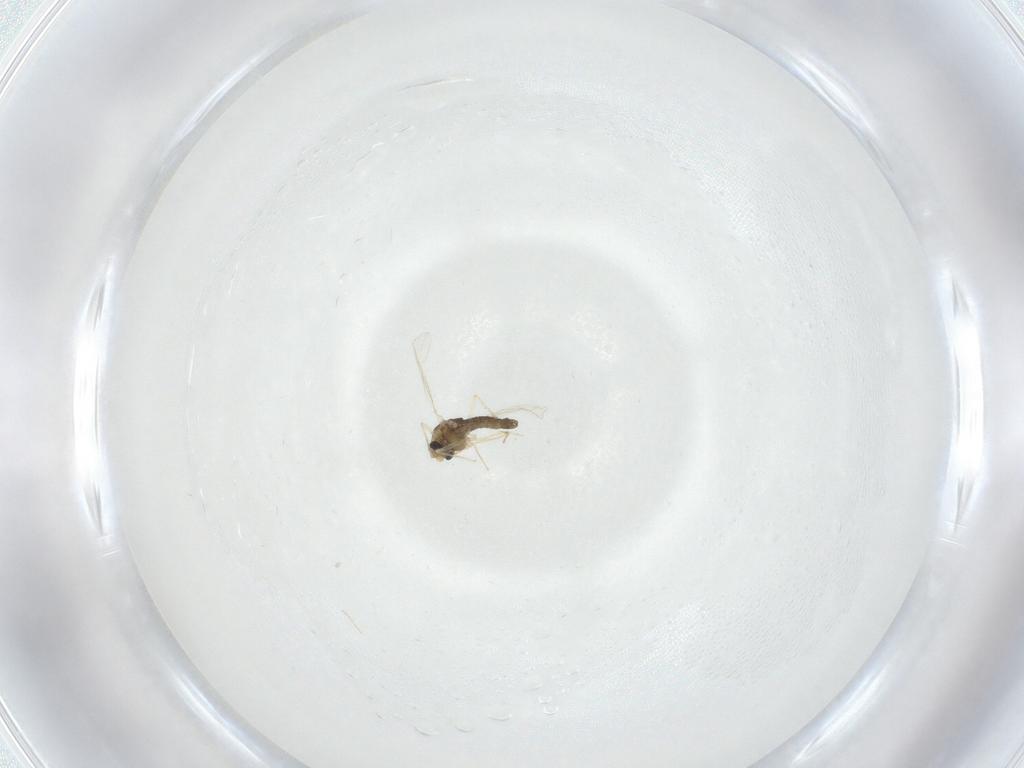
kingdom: Animalia
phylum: Arthropoda
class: Insecta
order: Diptera
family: Chironomidae
